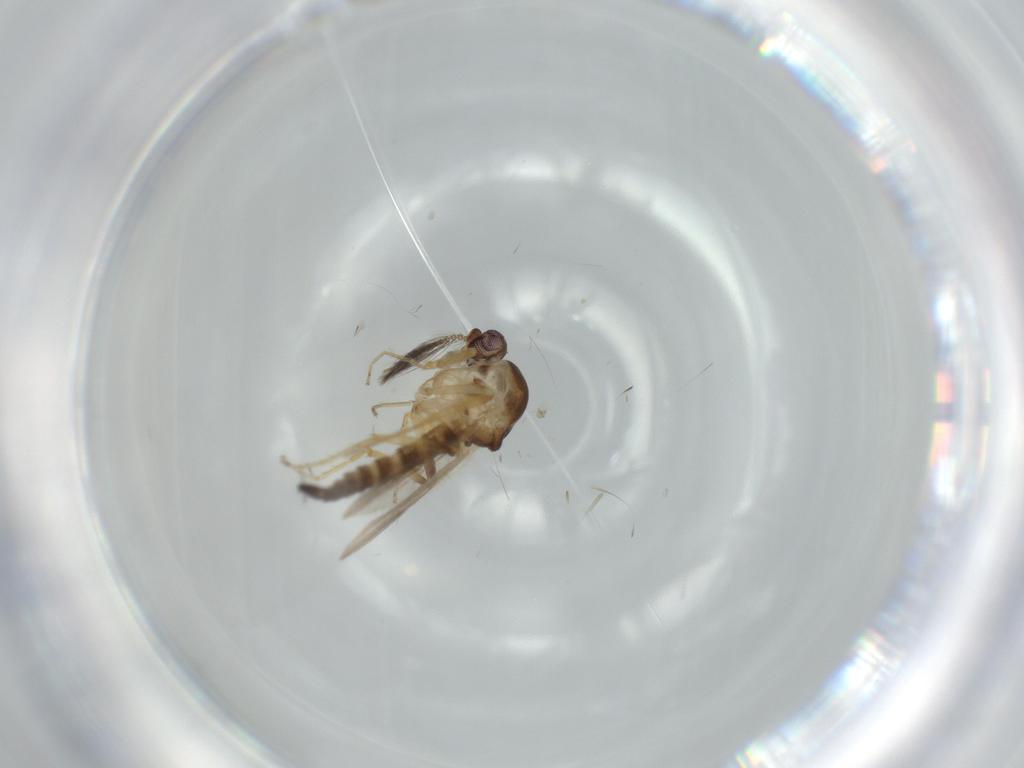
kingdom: Animalia
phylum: Arthropoda
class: Insecta
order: Diptera
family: Ceratopogonidae
